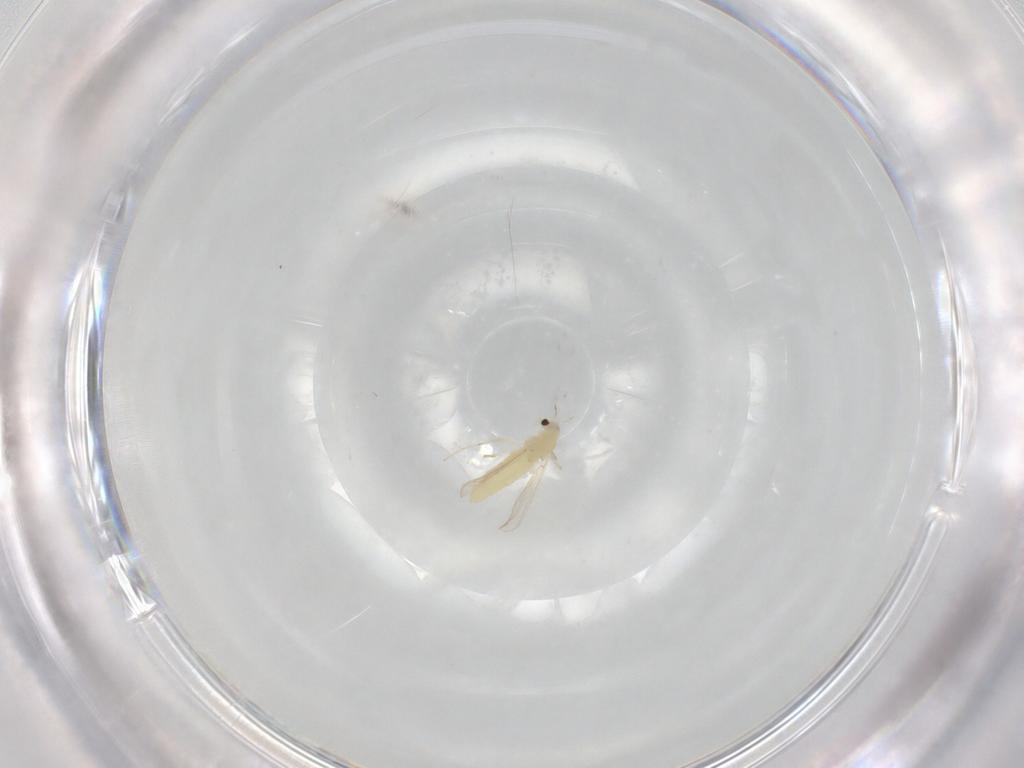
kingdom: Animalia
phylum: Arthropoda
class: Insecta
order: Diptera
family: Chironomidae
